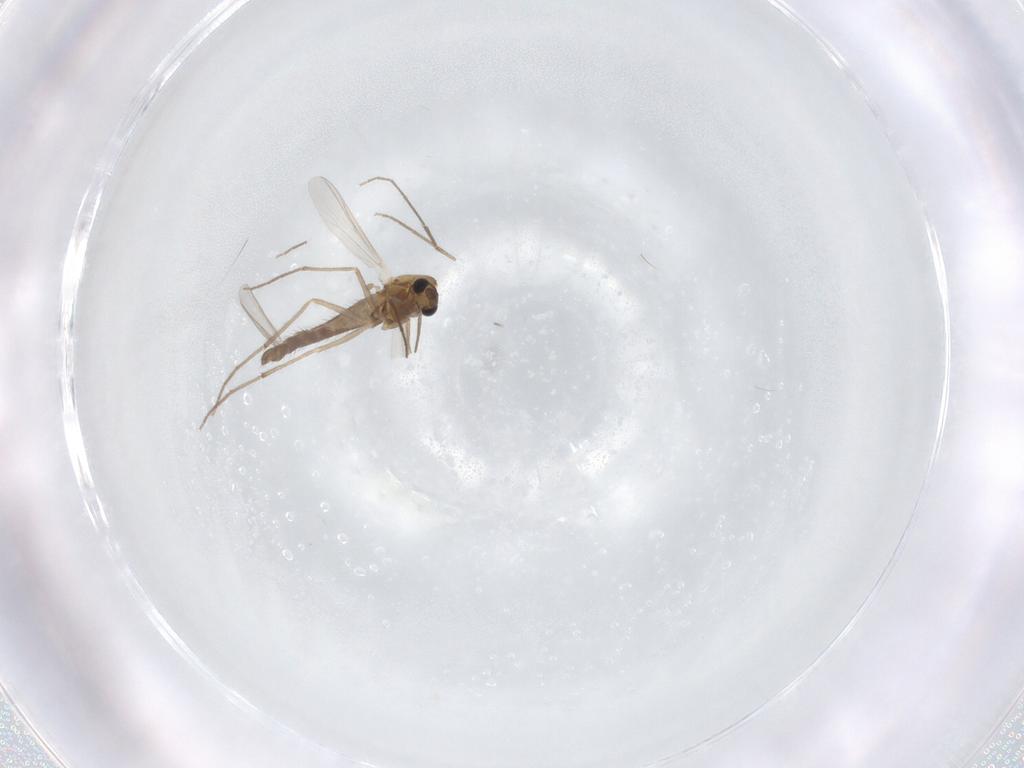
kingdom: Animalia
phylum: Arthropoda
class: Insecta
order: Diptera
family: Chironomidae
